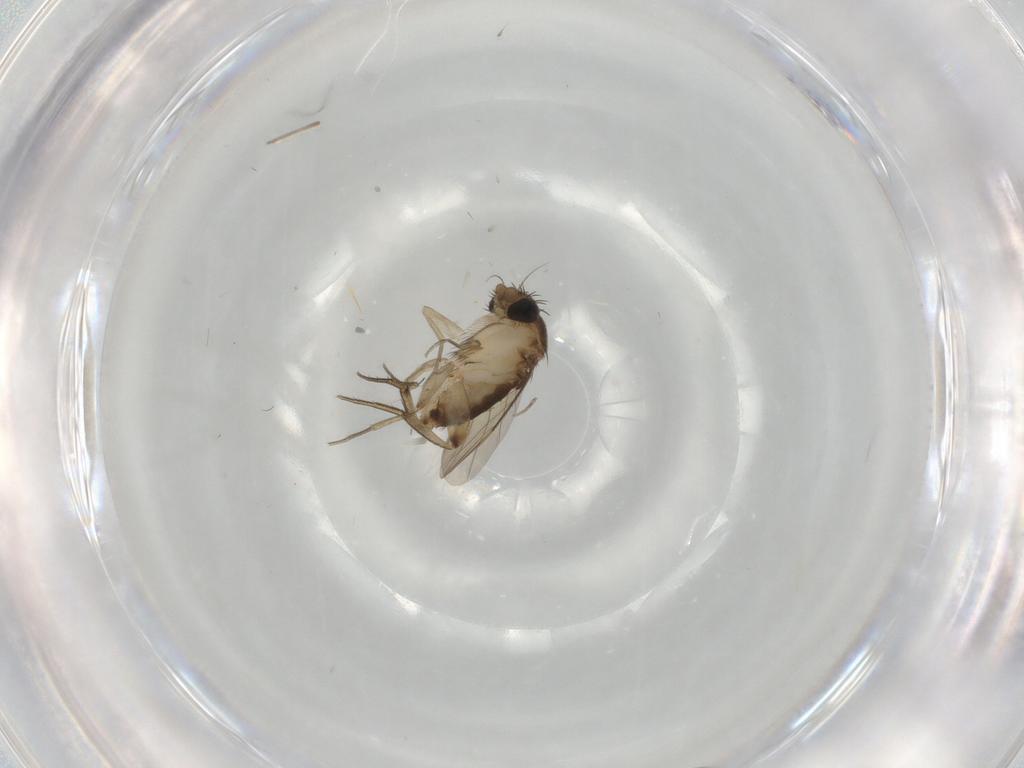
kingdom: Animalia
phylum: Arthropoda
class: Insecta
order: Diptera
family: Phoridae
